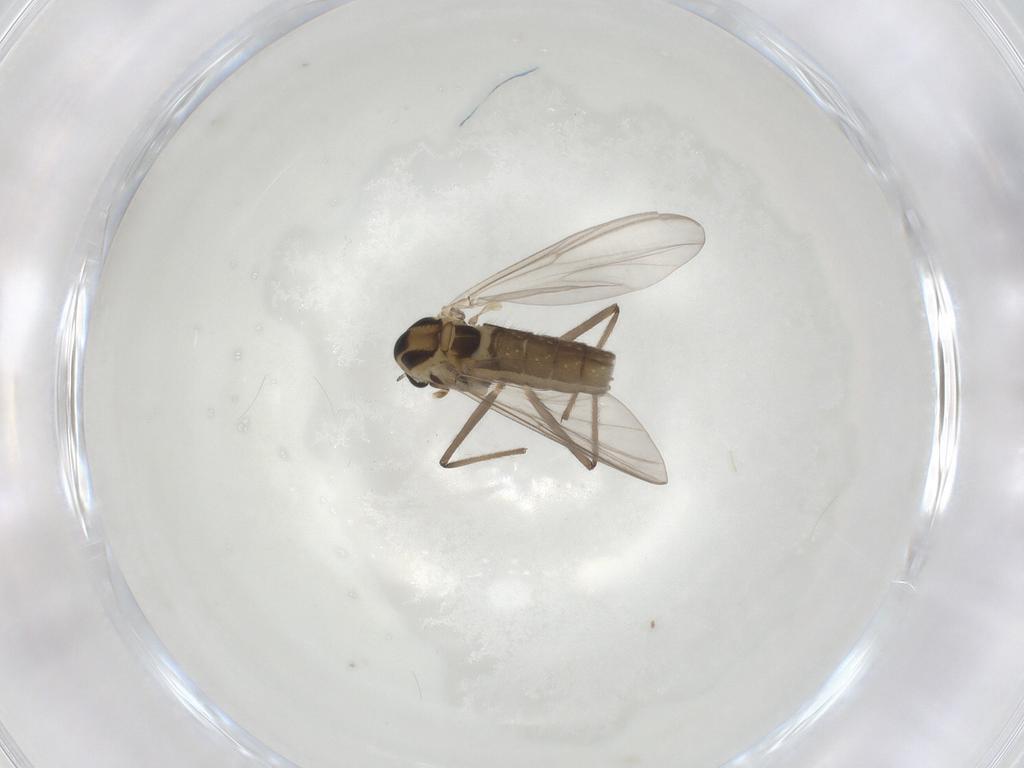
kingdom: Animalia
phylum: Arthropoda
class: Insecta
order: Diptera
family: Chironomidae
